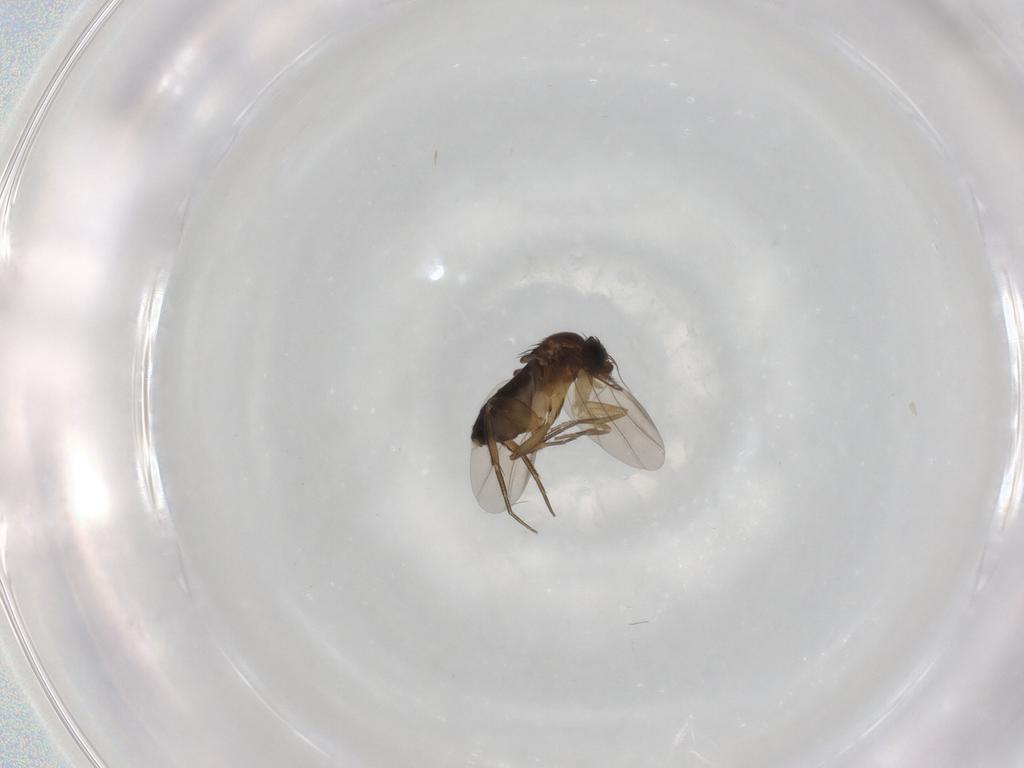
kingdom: Animalia
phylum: Arthropoda
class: Insecta
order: Diptera
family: Phoridae
